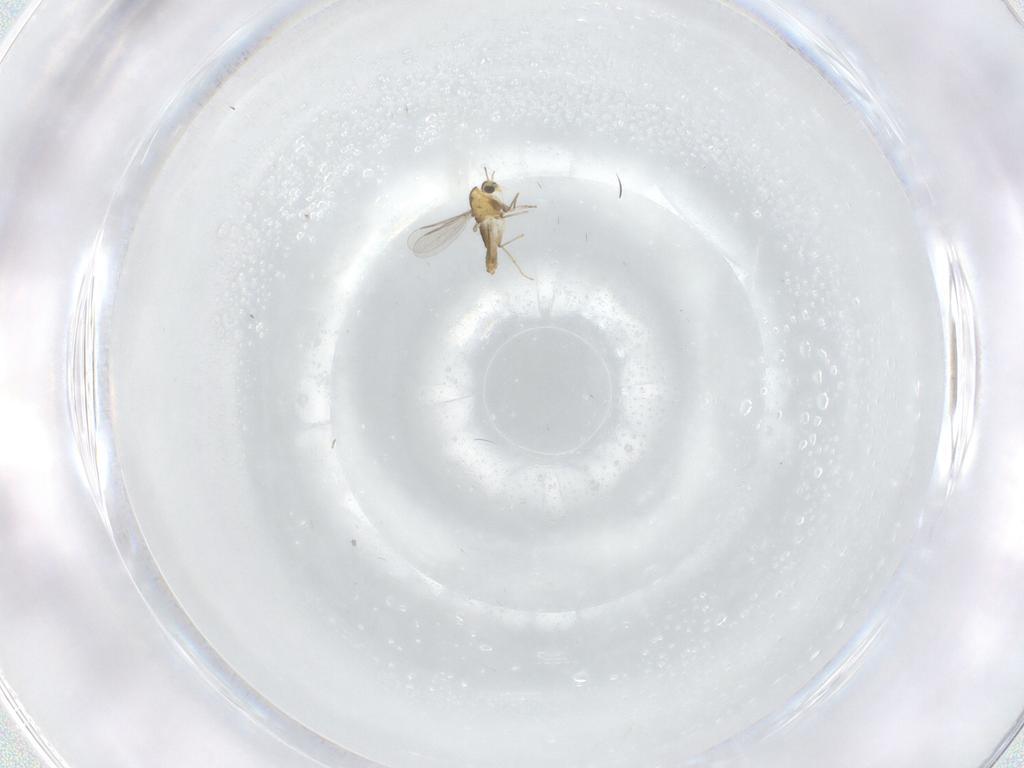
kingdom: Animalia
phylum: Arthropoda
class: Insecta
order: Diptera
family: Chironomidae
